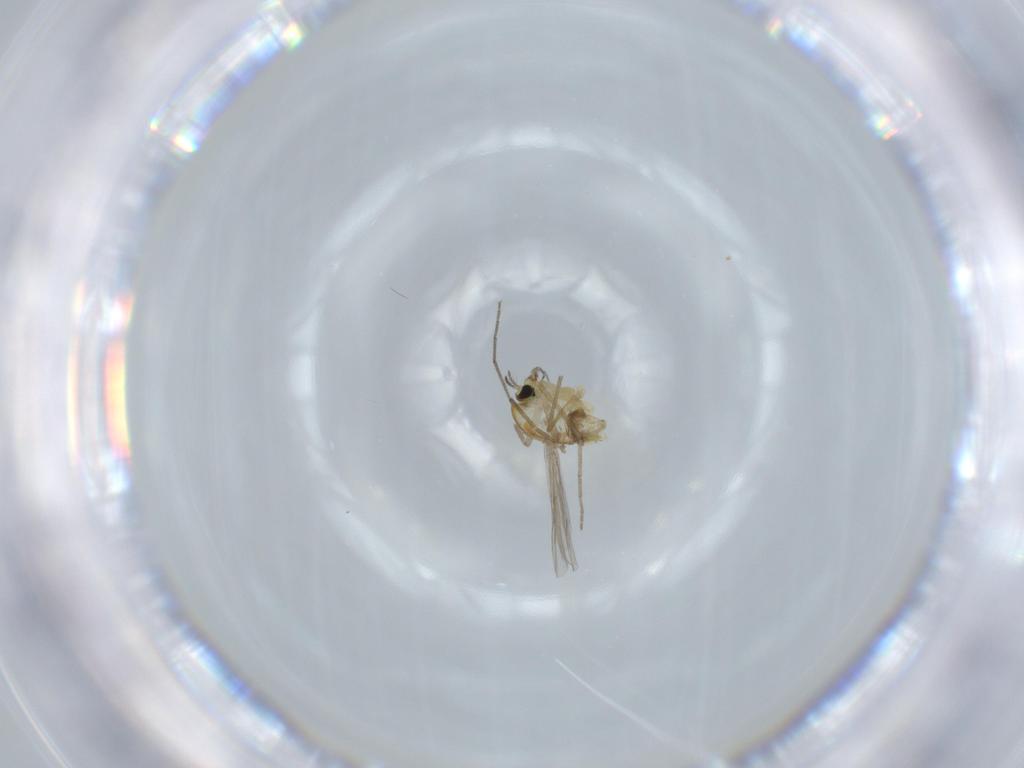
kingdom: Animalia
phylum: Arthropoda
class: Insecta
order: Diptera
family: Chironomidae
